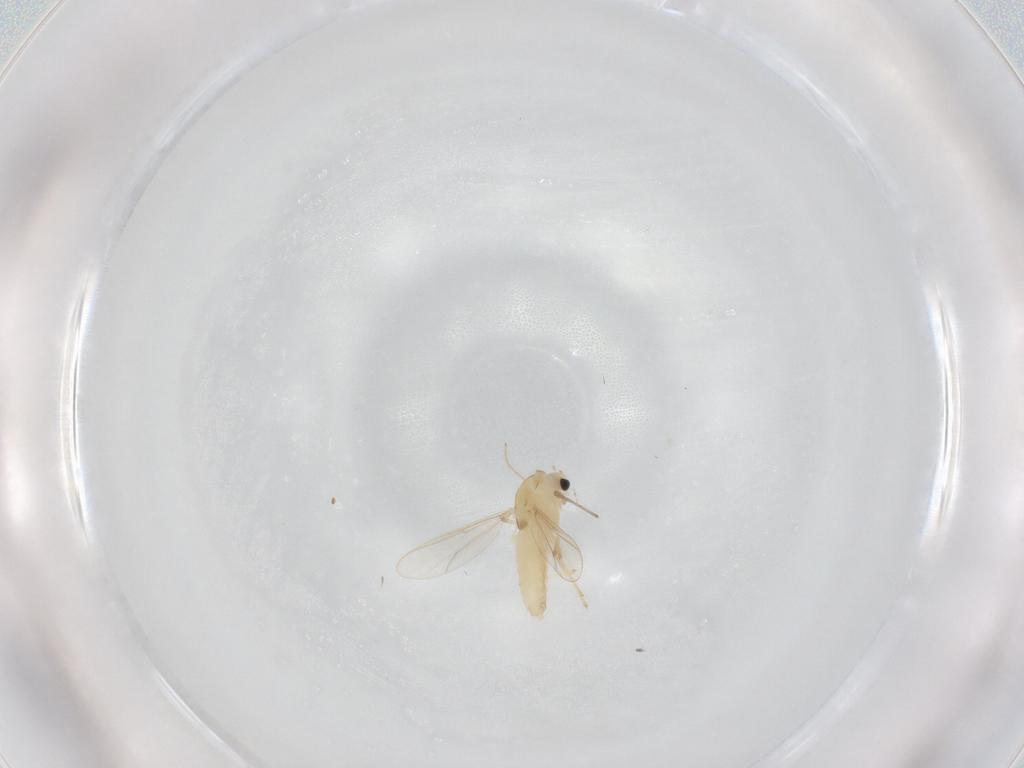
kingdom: Animalia
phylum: Arthropoda
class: Insecta
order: Diptera
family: Chironomidae
